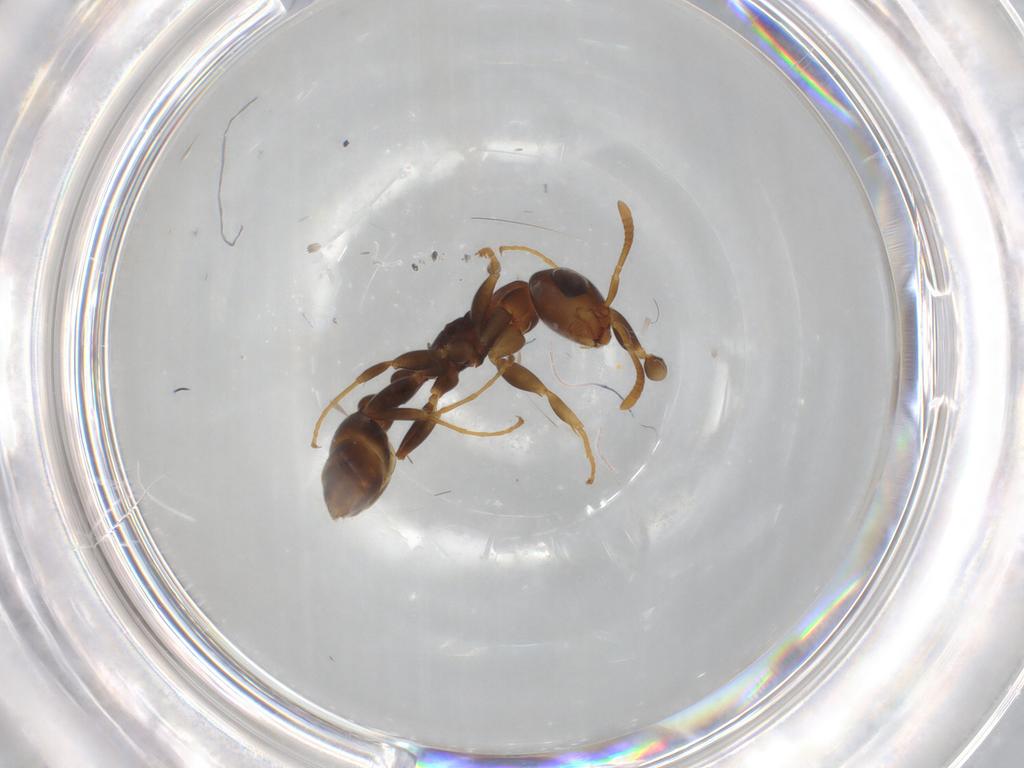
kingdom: Animalia
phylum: Arthropoda
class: Insecta
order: Hymenoptera
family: Formicidae
